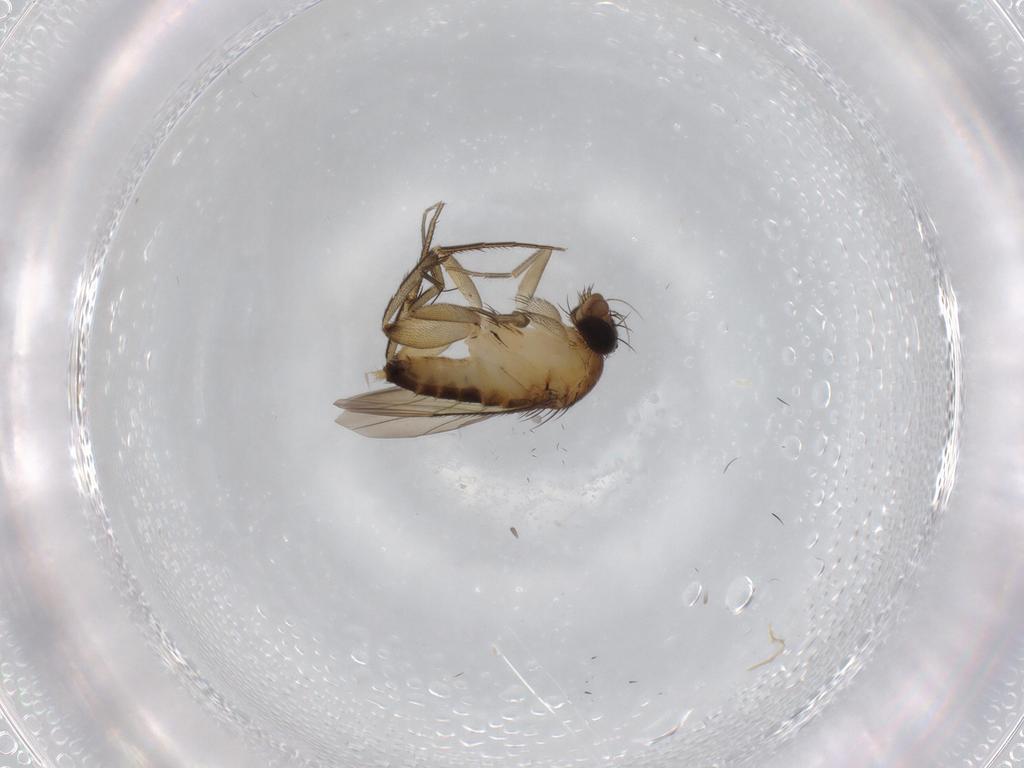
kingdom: Animalia
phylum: Arthropoda
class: Insecta
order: Diptera
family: Phoridae
